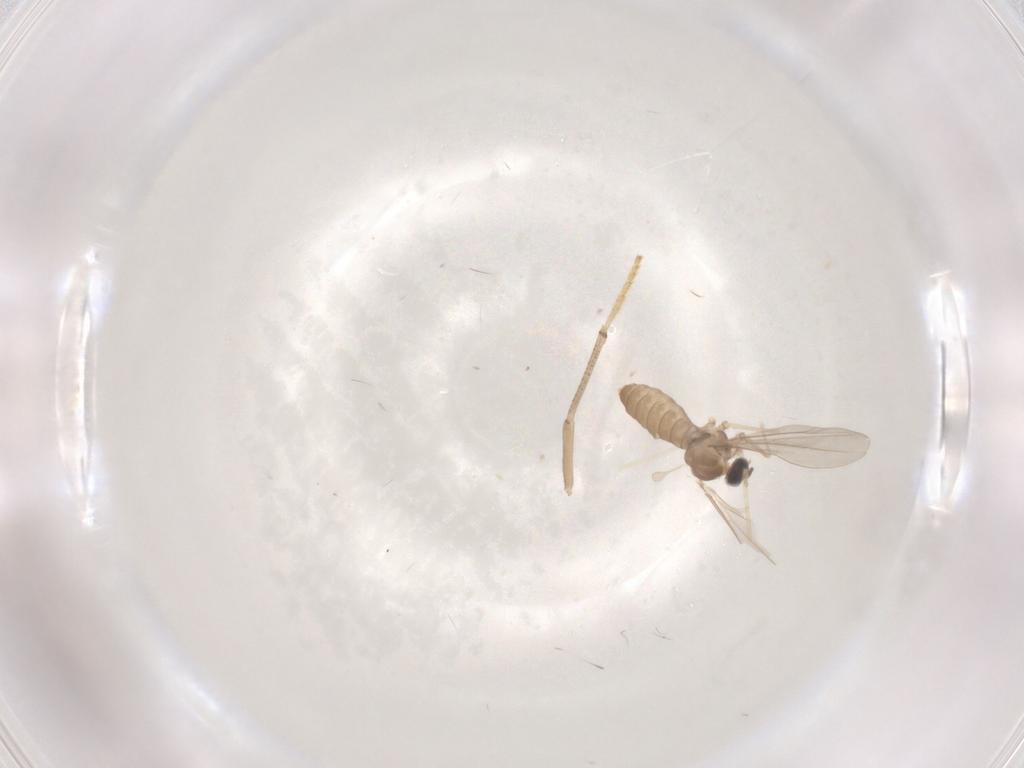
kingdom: Animalia
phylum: Arthropoda
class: Insecta
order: Diptera
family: Cecidomyiidae
